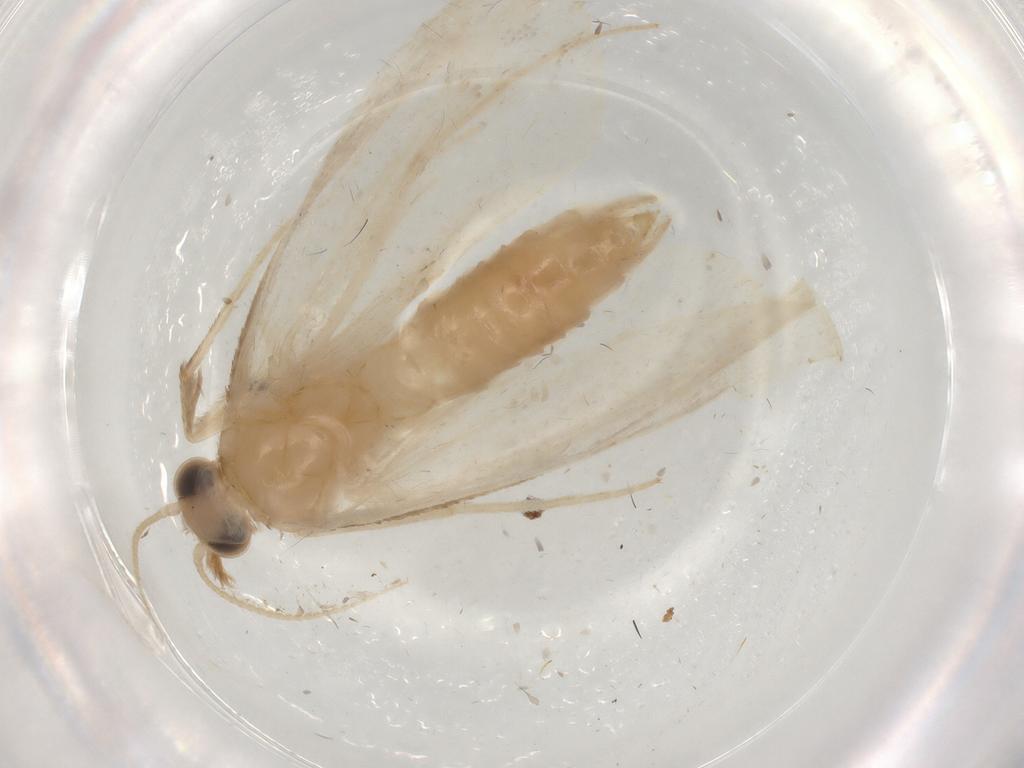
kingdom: Animalia
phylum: Arthropoda
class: Insecta
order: Lepidoptera
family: Crambidae
